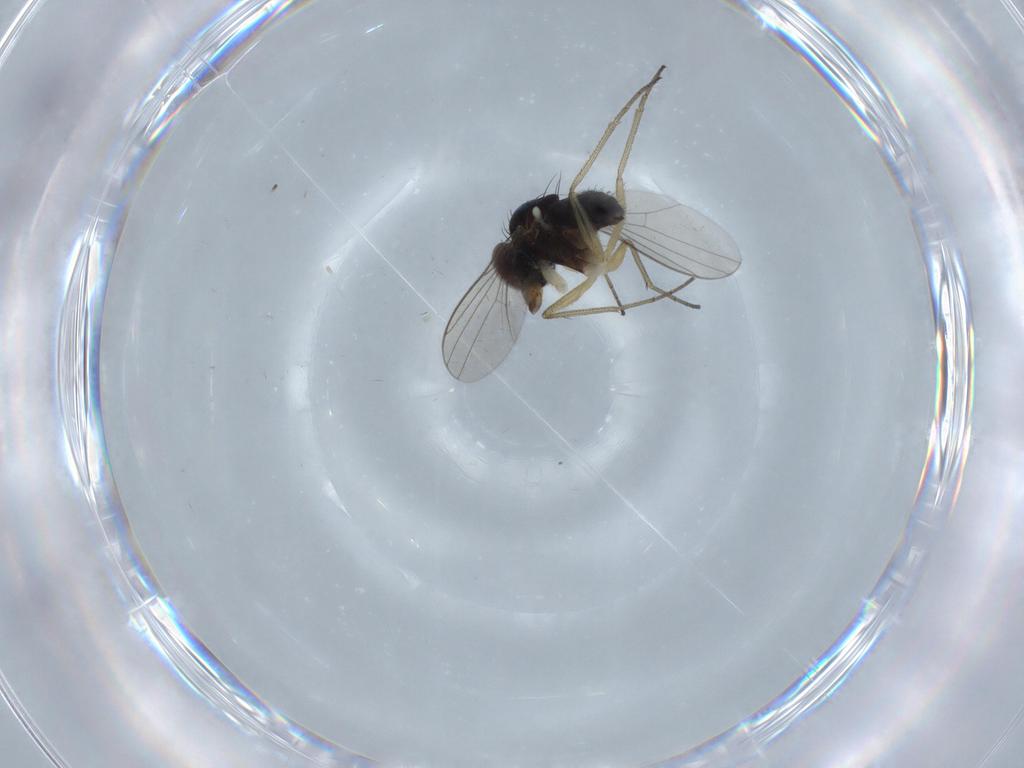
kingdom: Animalia
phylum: Arthropoda
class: Insecta
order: Diptera
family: Dolichopodidae
